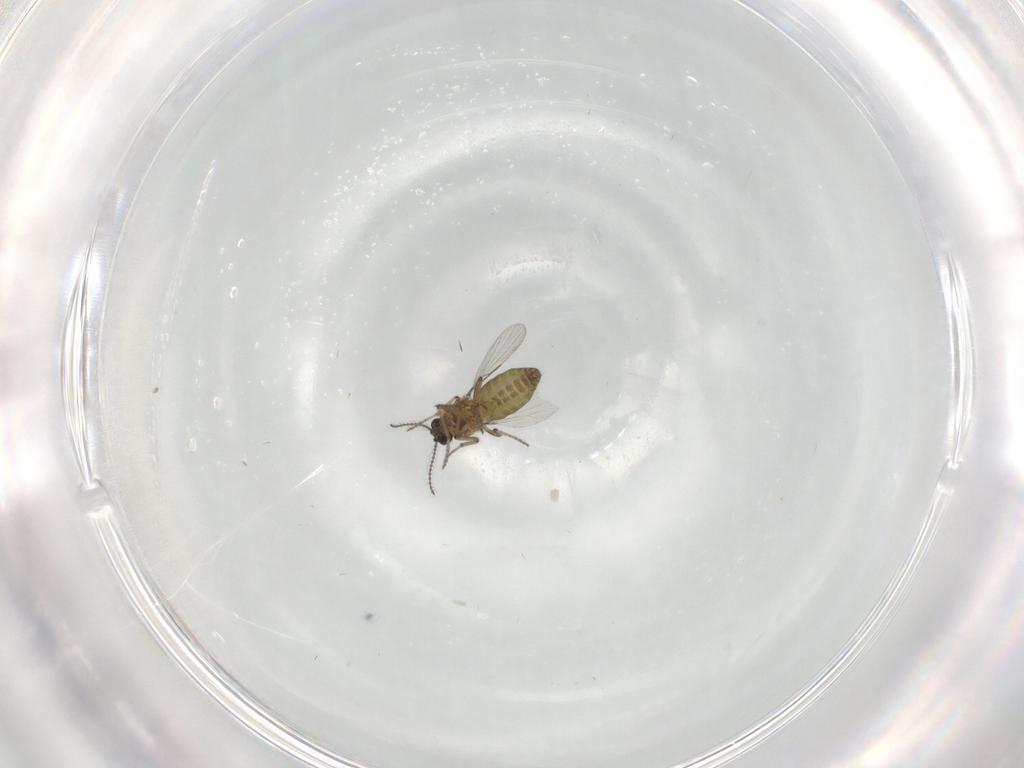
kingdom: Animalia
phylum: Arthropoda
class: Insecta
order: Diptera
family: Ceratopogonidae
